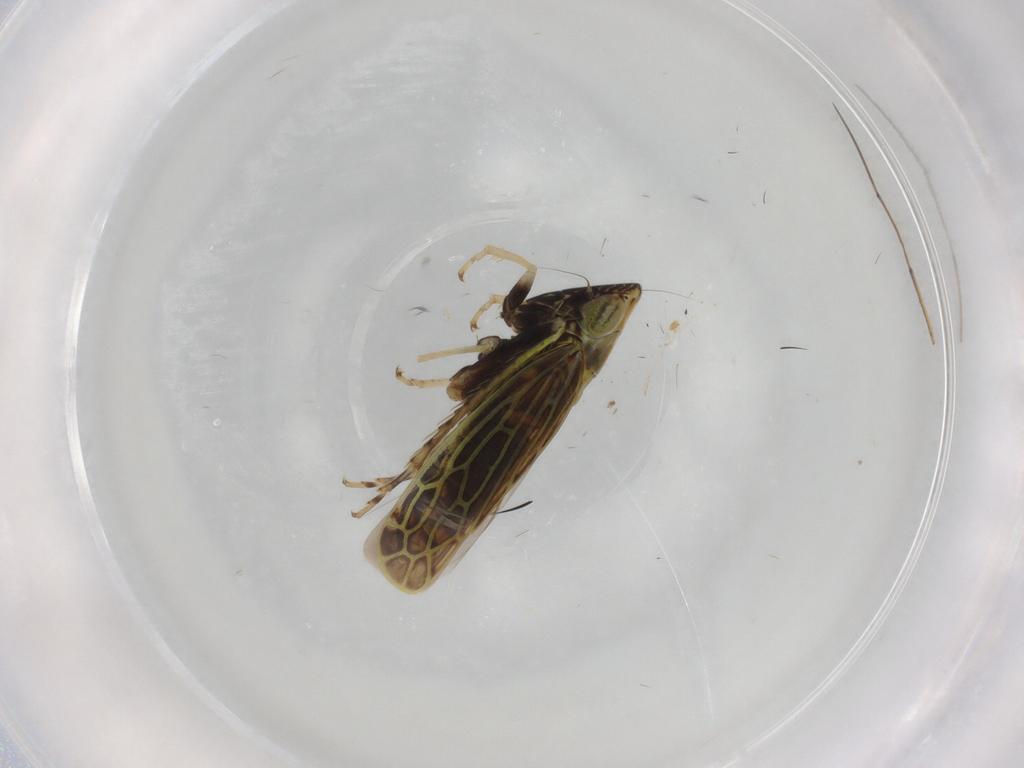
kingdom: Animalia
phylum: Arthropoda
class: Insecta
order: Hemiptera
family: Cicadellidae
